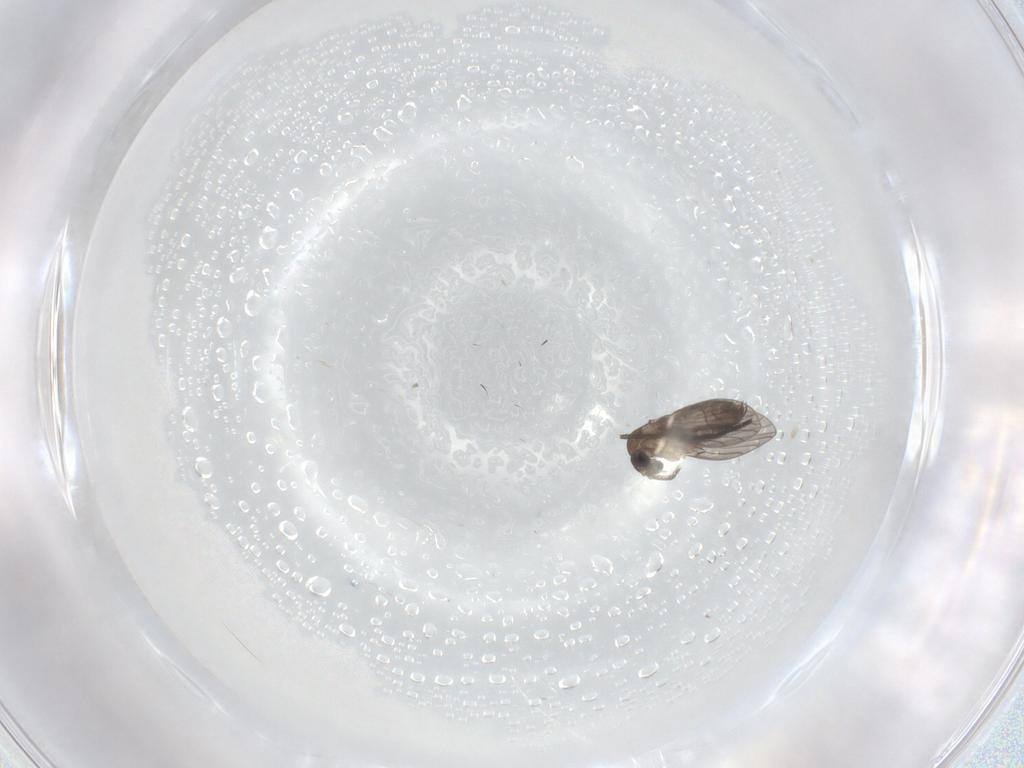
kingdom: Animalia
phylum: Arthropoda
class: Insecta
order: Diptera
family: Sciaridae
